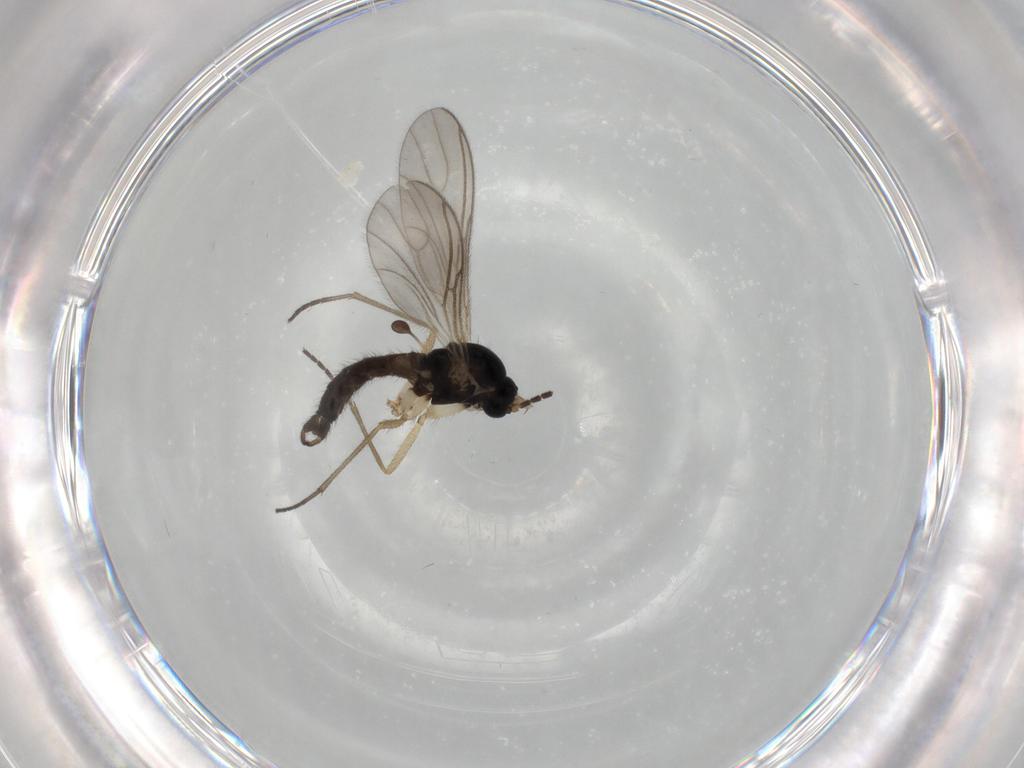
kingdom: Animalia
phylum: Arthropoda
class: Insecta
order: Diptera
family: Sciaridae
